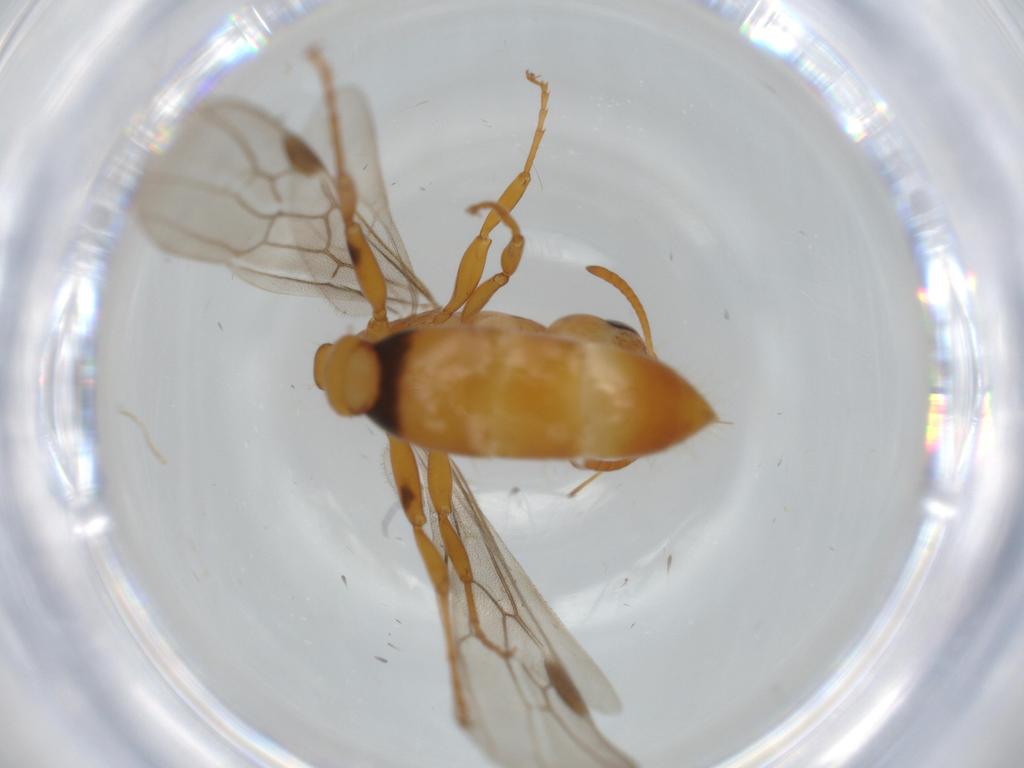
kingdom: Animalia
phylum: Arthropoda
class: Insecta
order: Hymenoptera
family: Formicidae
